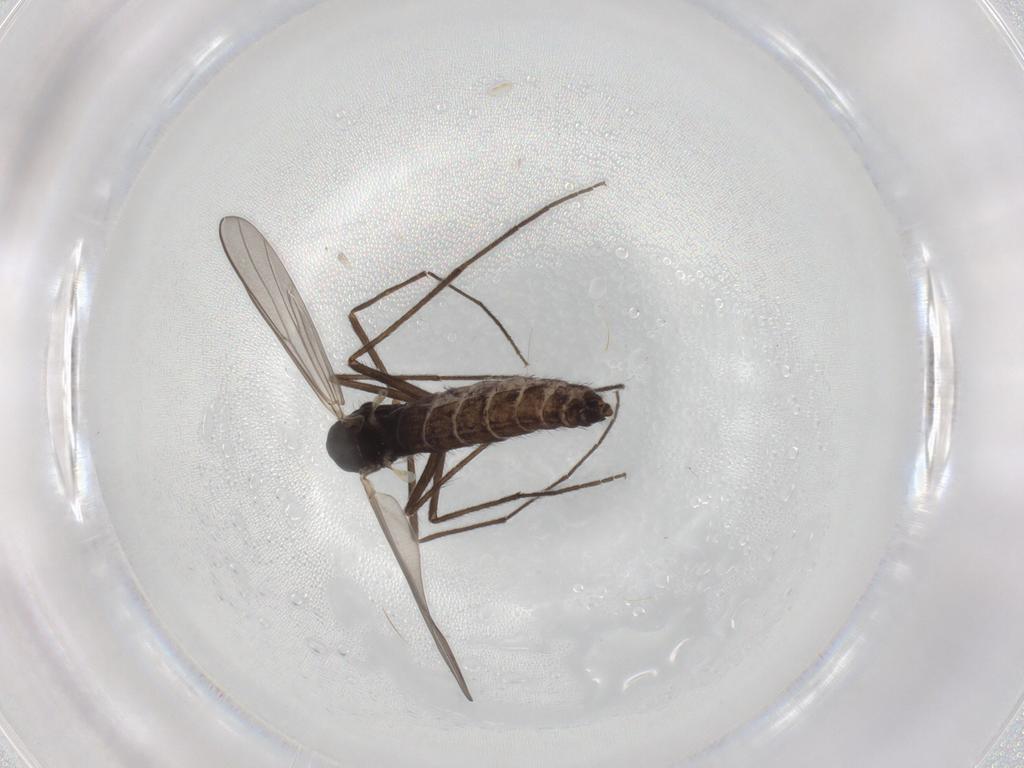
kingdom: Animalia
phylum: Arthropoda
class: Insecta
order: Diptera
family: Chironomidae
